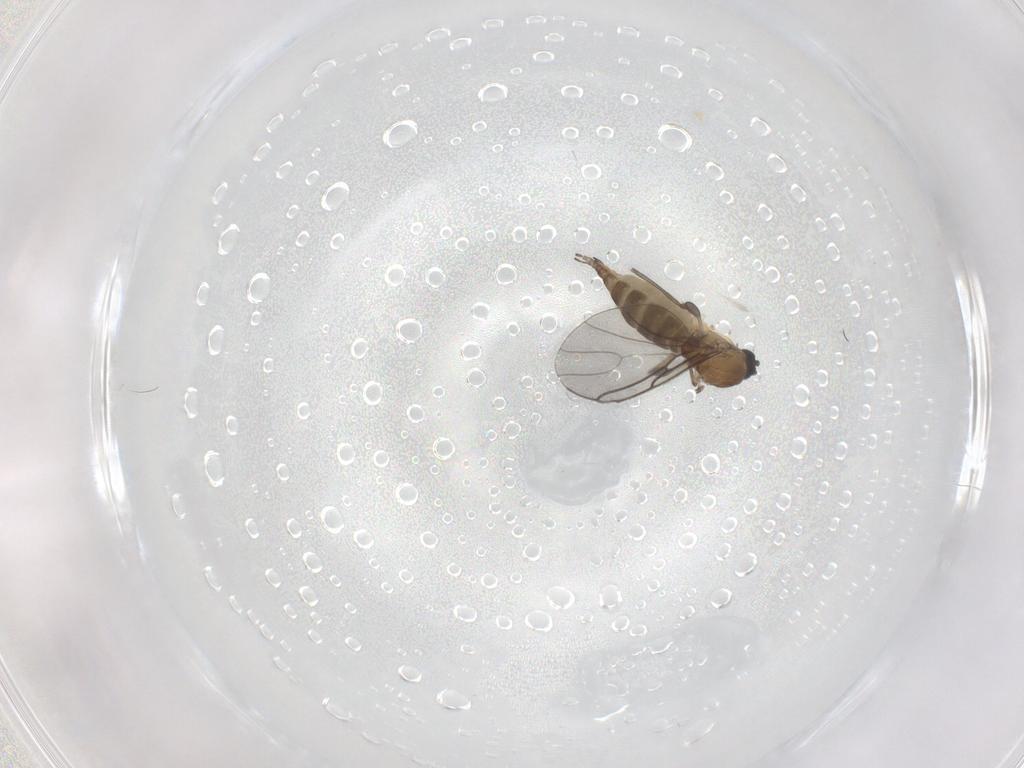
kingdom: Animalia
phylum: Arthropoda
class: Insecta
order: Diptera
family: Sciaridae
